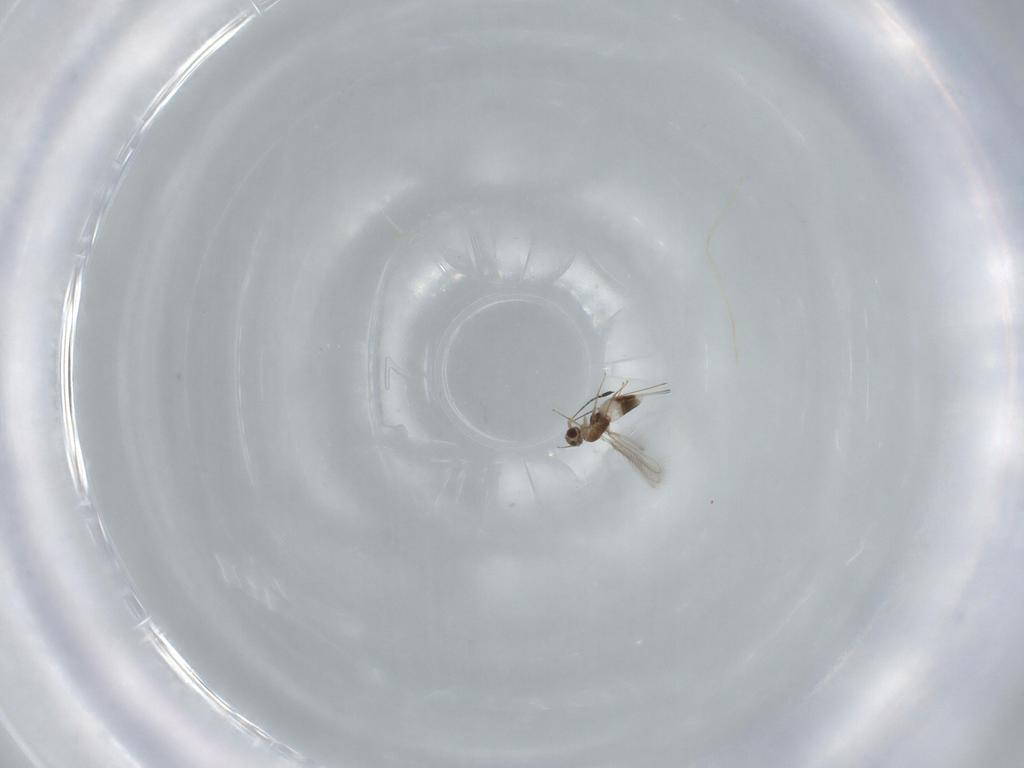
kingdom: Animalia
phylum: Arthropoda
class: Insecta
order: Hymenoptera
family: Mymaridae
